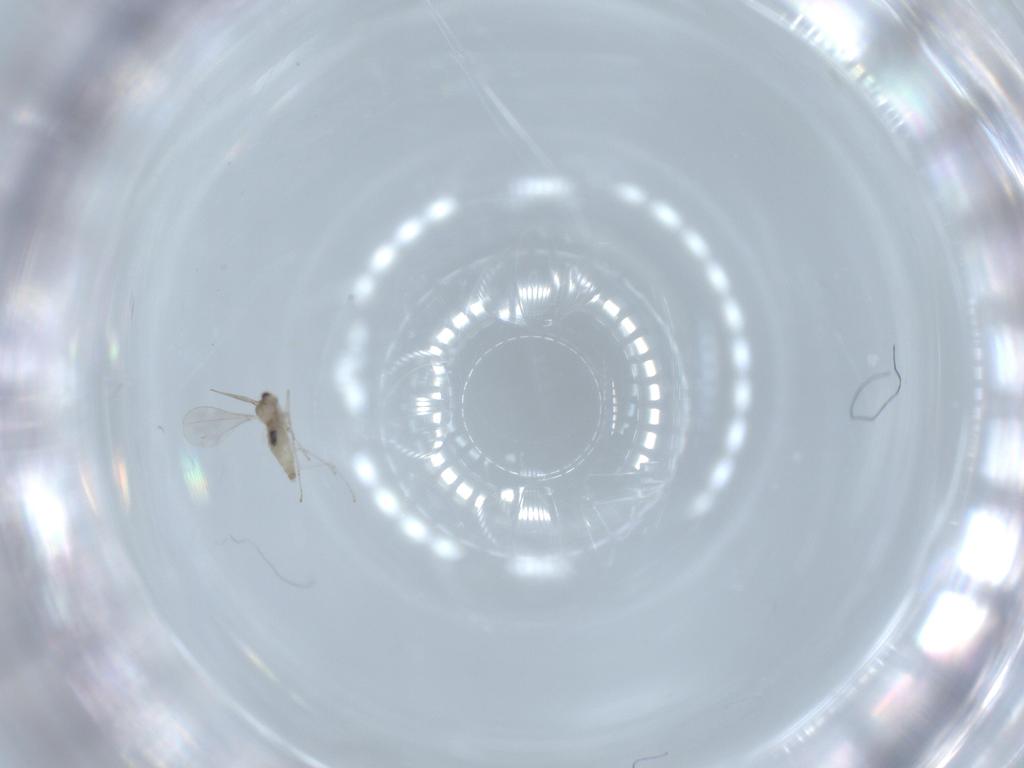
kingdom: Animalia
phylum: Arthropoda
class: Insecta
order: Diptera
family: Cecidomyiidae
